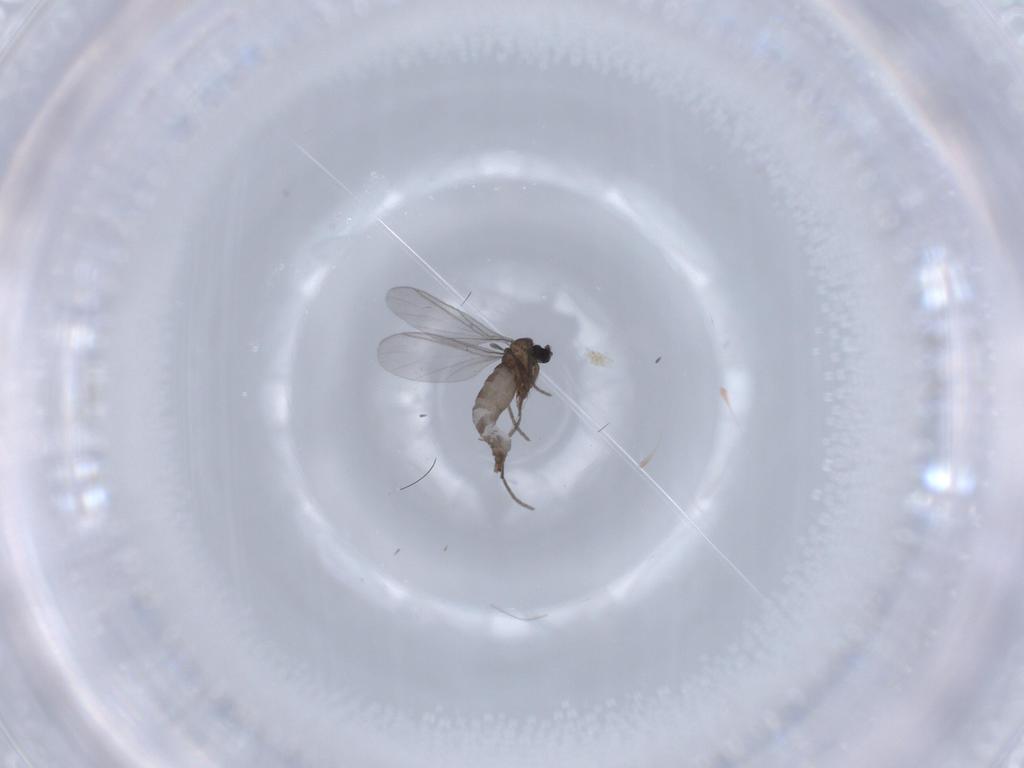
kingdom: Animalia
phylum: Arthropoda
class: Insecta
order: Diptera
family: Sciaridae
